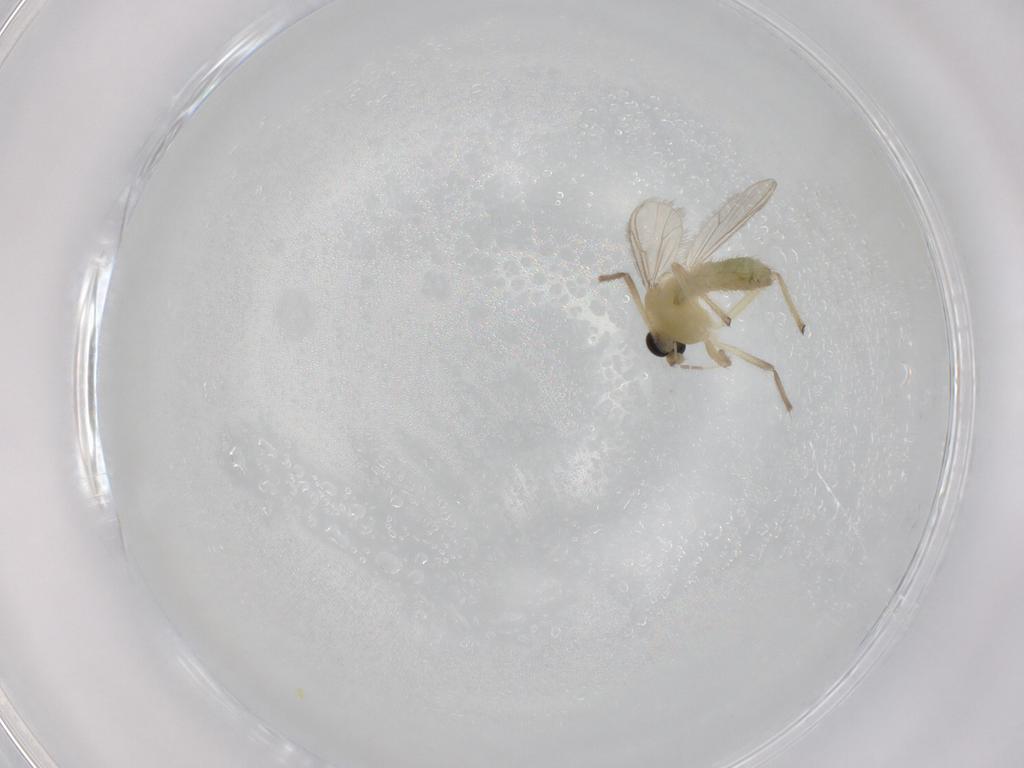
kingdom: Animalia
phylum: Arthropoda
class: Insecta
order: Diptera
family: Chironomidae
